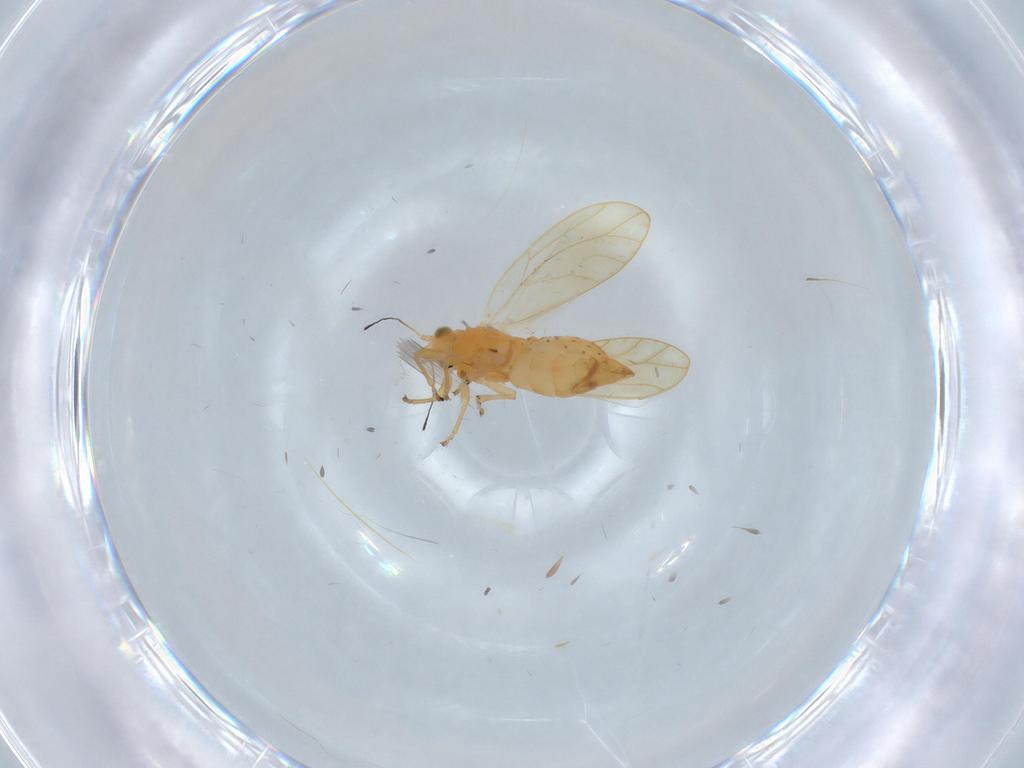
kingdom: Animalia
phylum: Arthropoda
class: Insecta
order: Hemiptera
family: Triozidae
